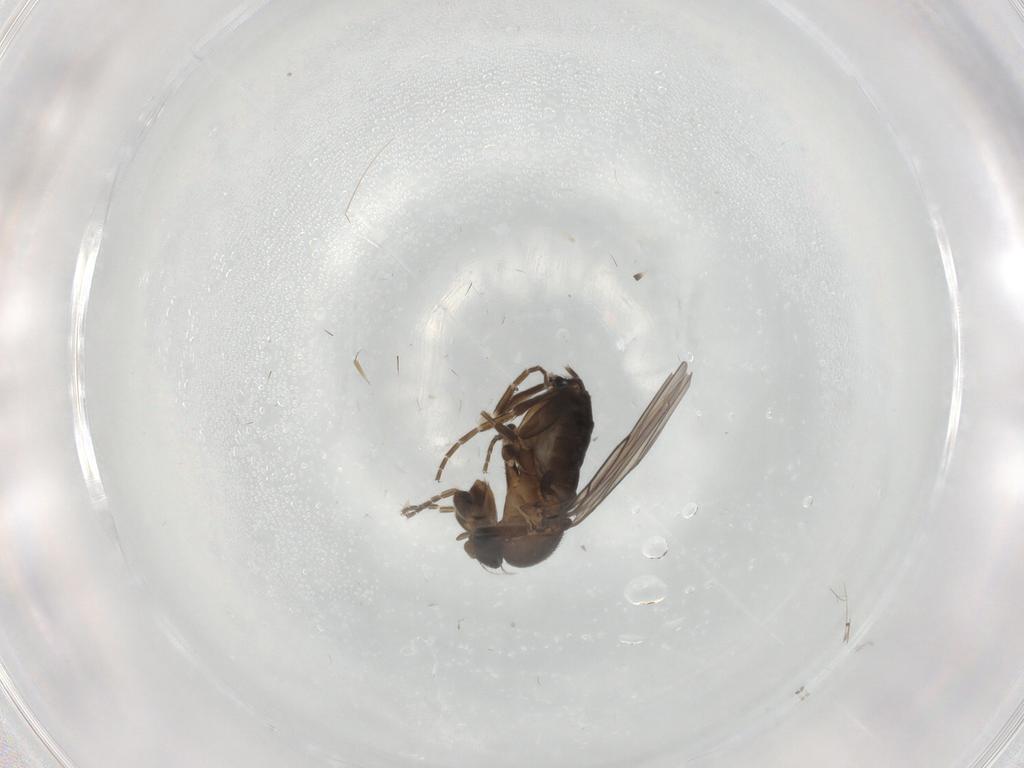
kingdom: Animalia
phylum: Arthropoda
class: Insecta
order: Diptera
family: Phoridae
